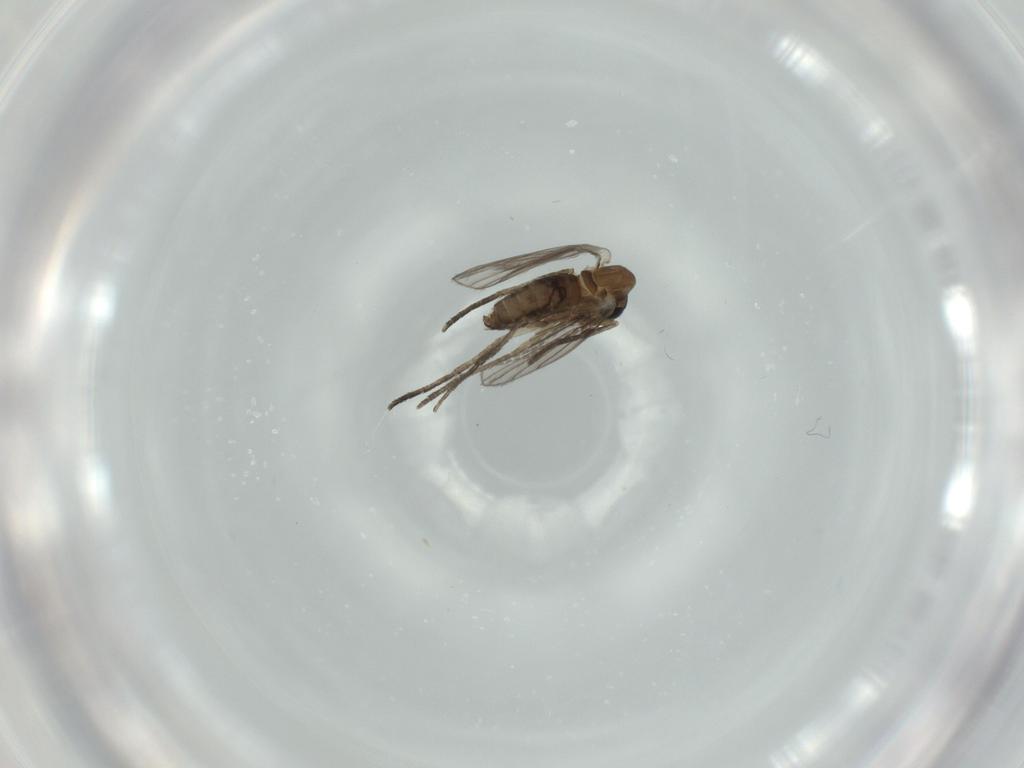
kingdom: Animalia
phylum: Arthropoda
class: Insecta
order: Diptera
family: Psychodidae
